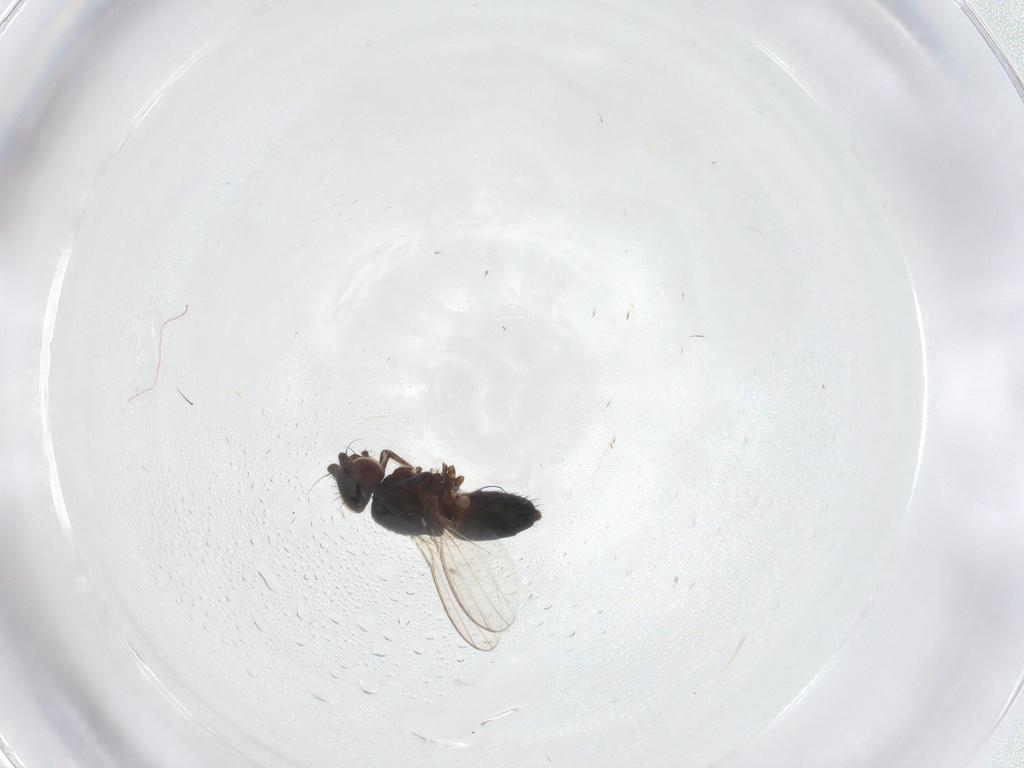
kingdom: Animalia
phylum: Arthropoda
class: Insecta
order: Diptera
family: Milichiidae
